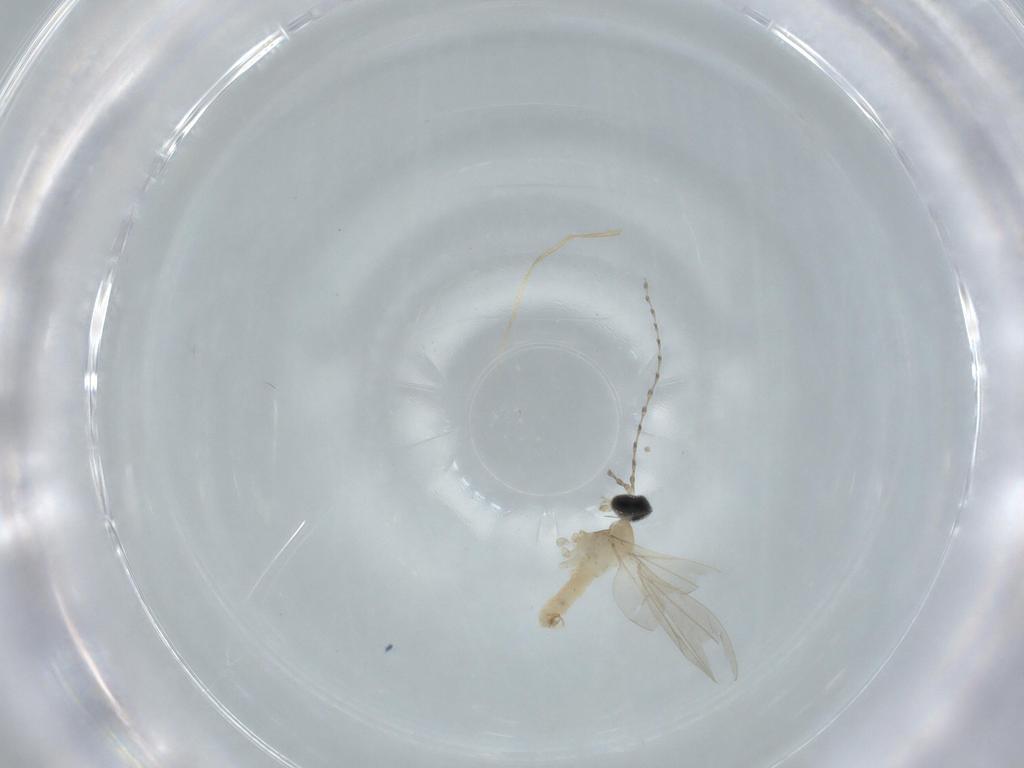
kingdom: Animalia
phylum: Arthropoda
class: Insecta
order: Diptera
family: Cecidomyiidae
